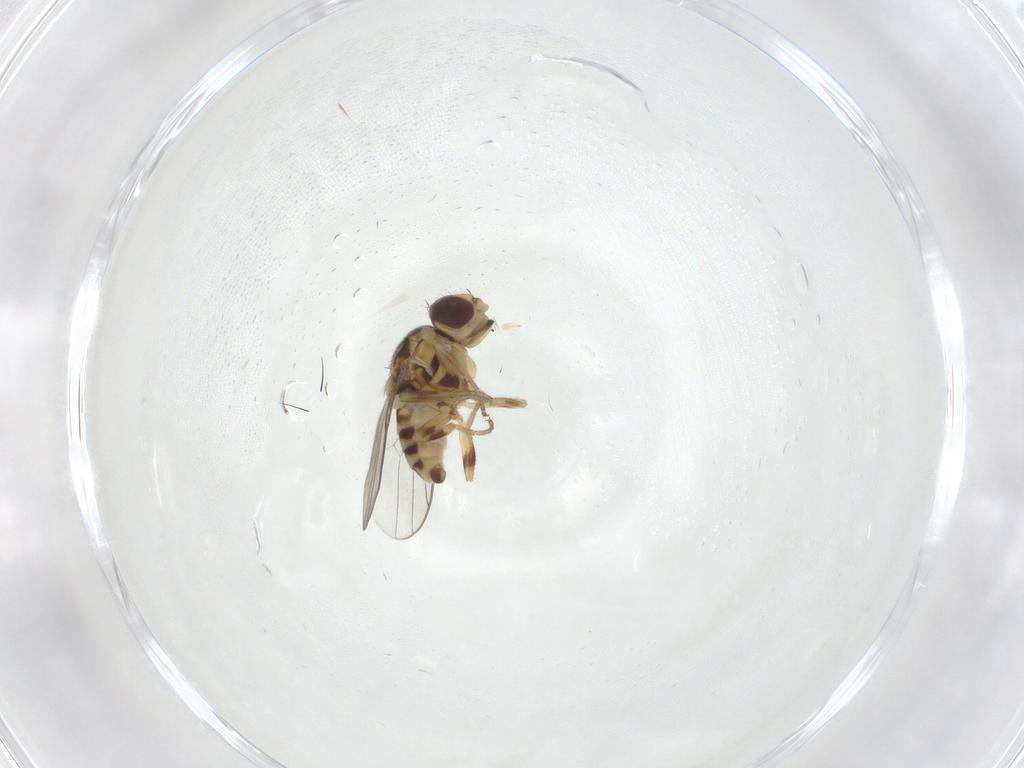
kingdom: Animalia
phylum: Arthropoda
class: Insecta
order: Diptera
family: Chloropidae
